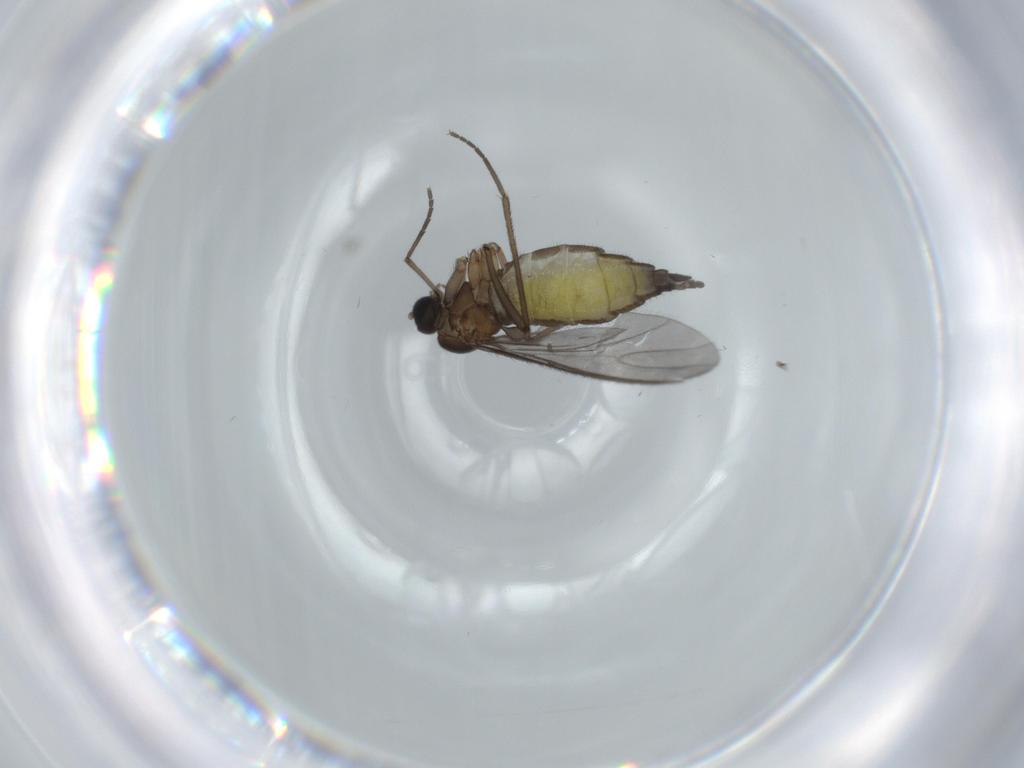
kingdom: Animalia
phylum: Arthropoda
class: Insecta
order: Diptera
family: Sciaridae
